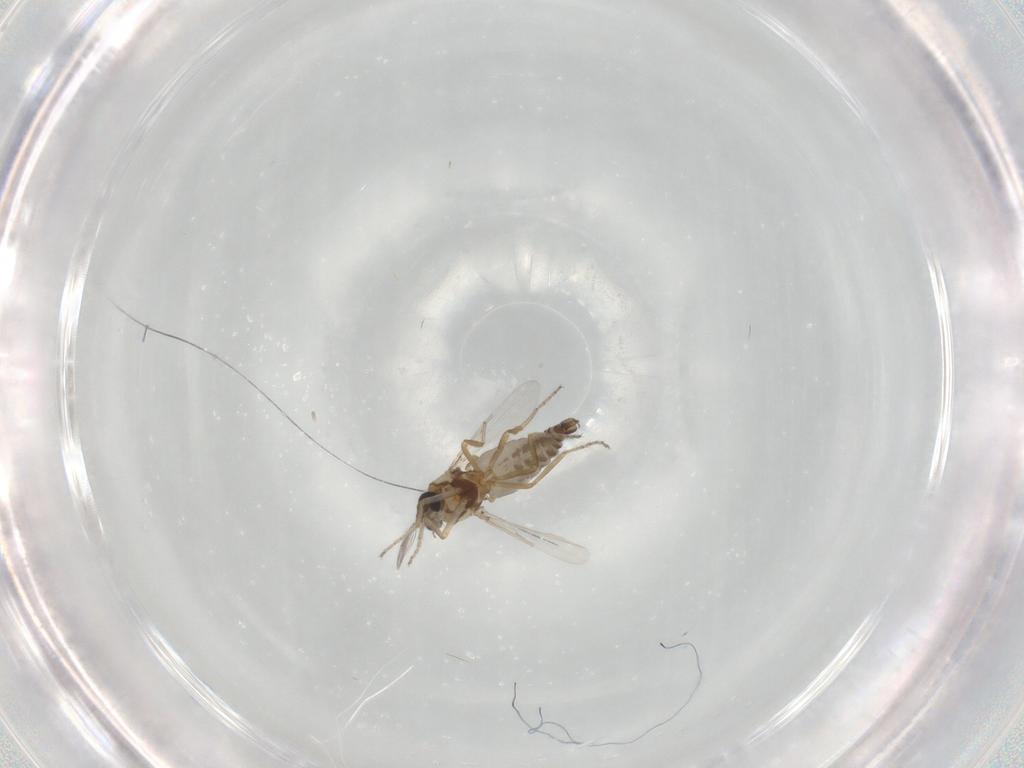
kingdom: Animalia
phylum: Arthropoda
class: Insecta
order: Diptera
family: Ceratopogonidae
